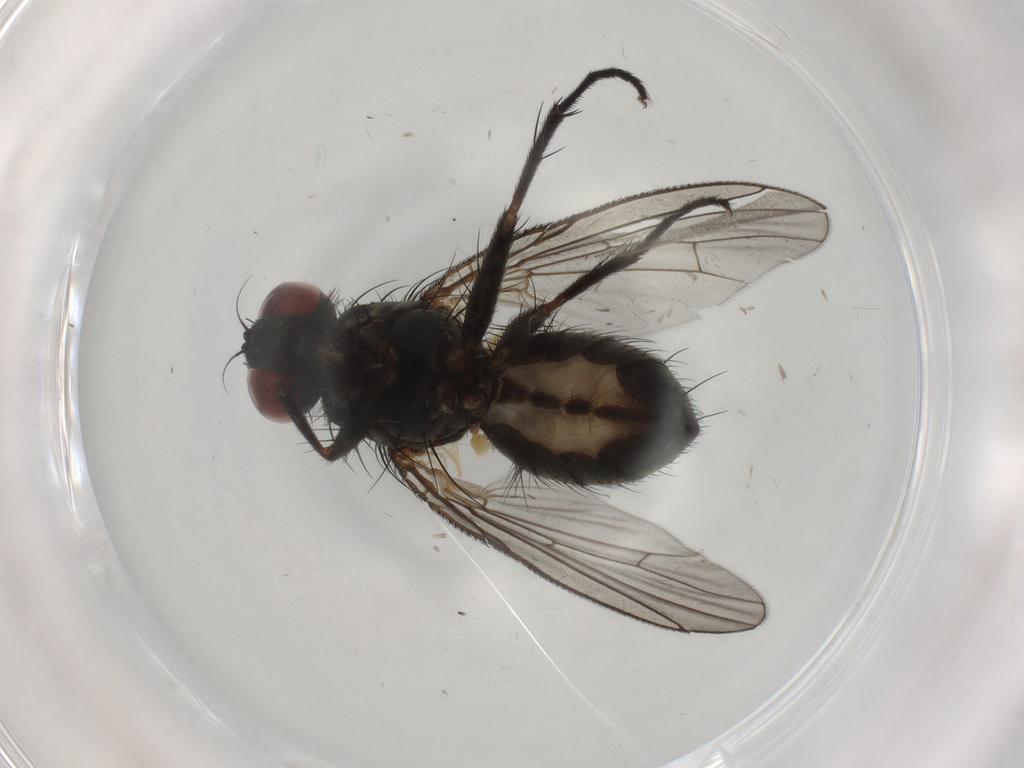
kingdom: Animalia
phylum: Arthropoda
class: Insecta
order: Diptera
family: Muscidae
